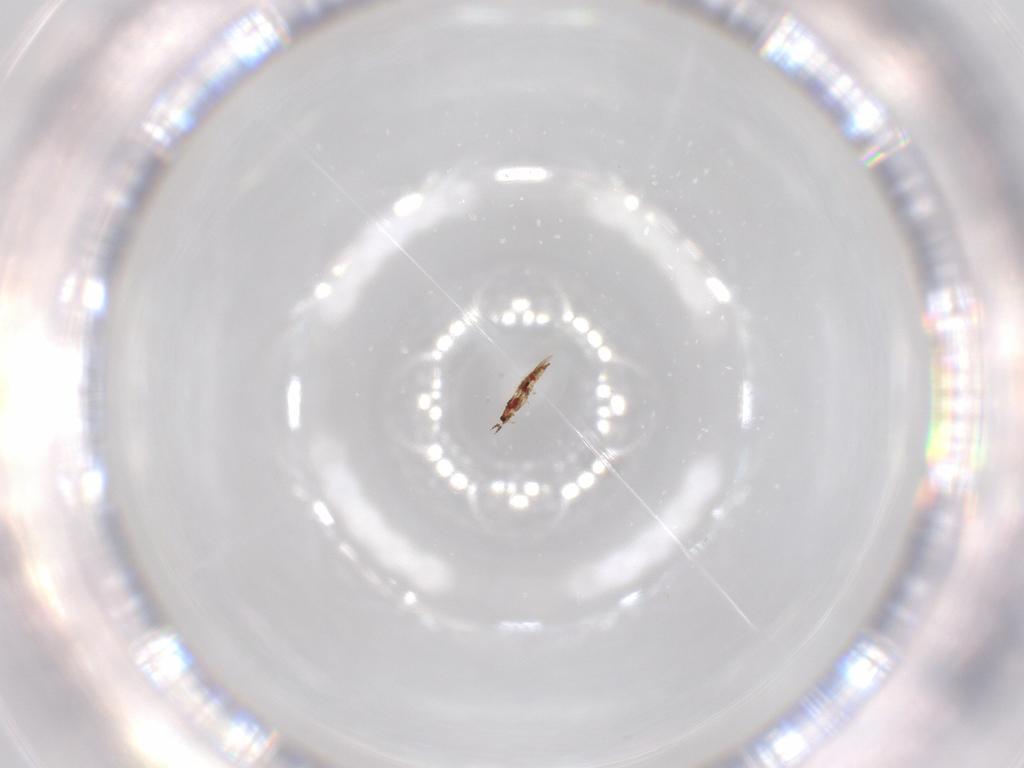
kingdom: Animalia
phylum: Arthropoda
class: Insecta
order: Thysanoptera
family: Phlaeothripidae
